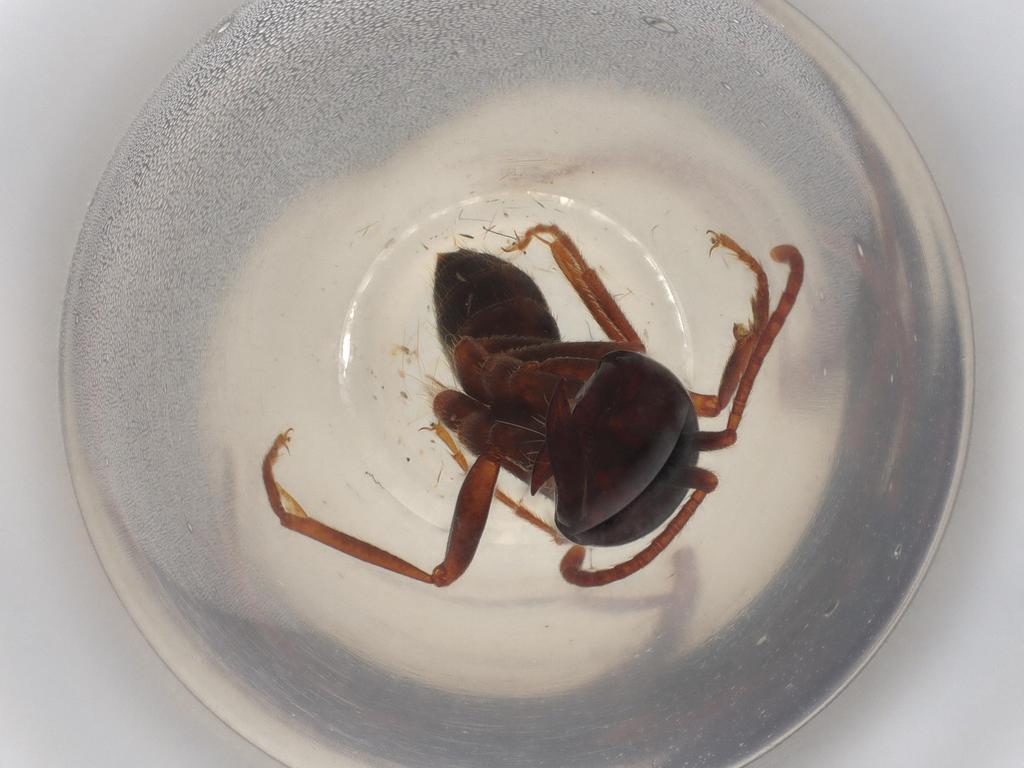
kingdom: Animalia
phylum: Arthropoda
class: Insecta
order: Hymenoptera
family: Formicidae
